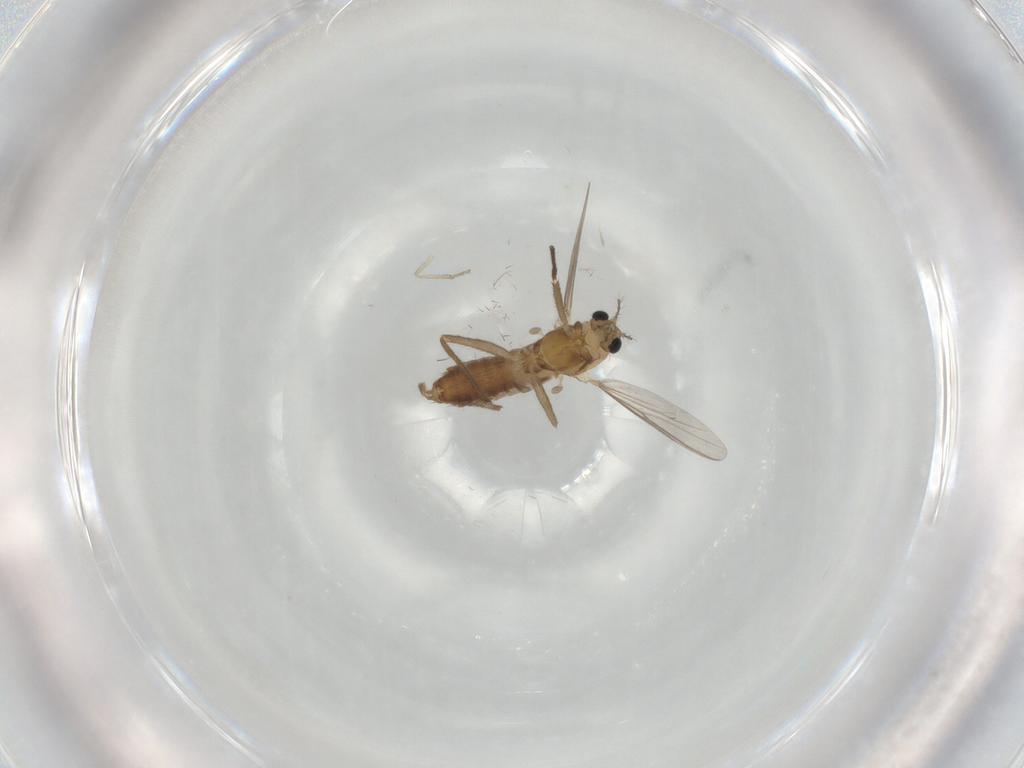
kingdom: Animalia
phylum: Arthropoda
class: Insecta
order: Diptera
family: Chironomidae
